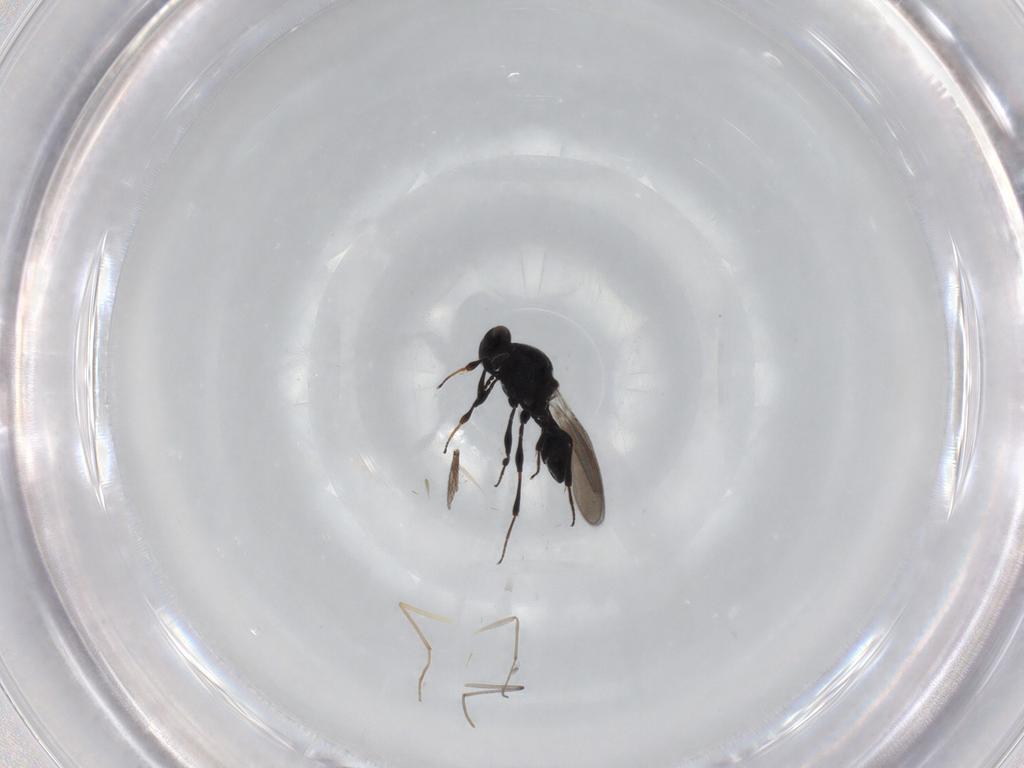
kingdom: Animalia
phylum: Arthropoda
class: Insecta
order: Hymenoptera
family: Platygastridae
